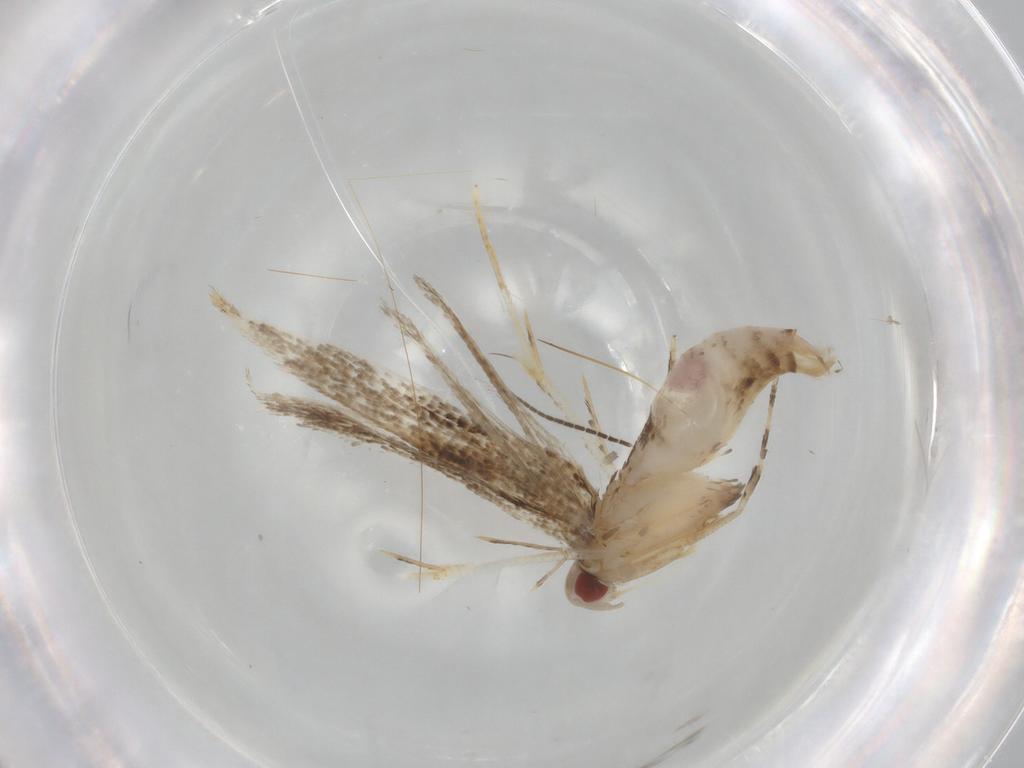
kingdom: Animalia
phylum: Arthropoda
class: Insecta
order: Lepidoptera
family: Cosmopterigidae
